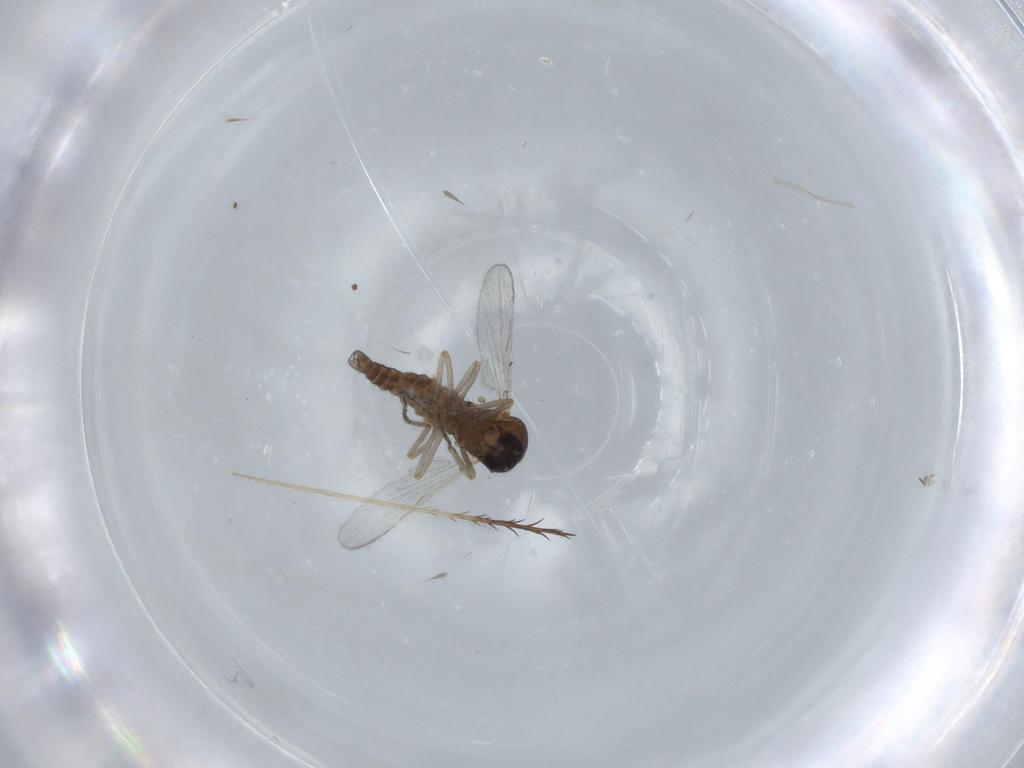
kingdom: Animalia
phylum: Arthropoda
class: Insecta
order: Diptera
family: Ceratopogonidae
